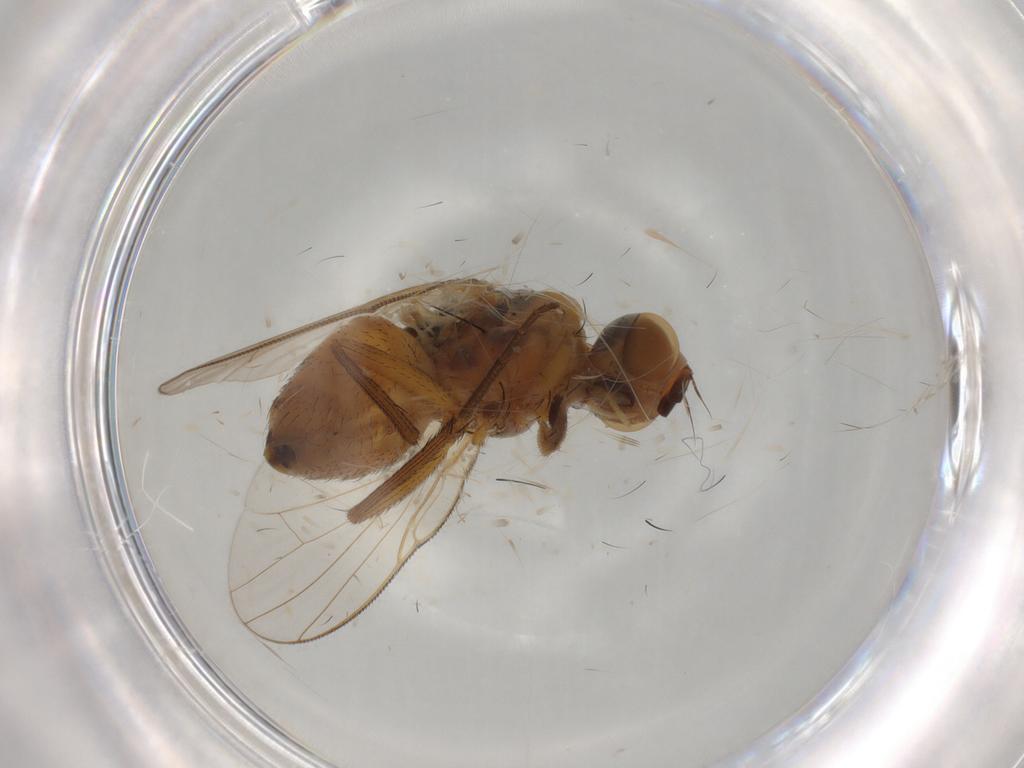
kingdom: Animalia
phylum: Arthropoda
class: Insecta
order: Diptera
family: Muscidae
